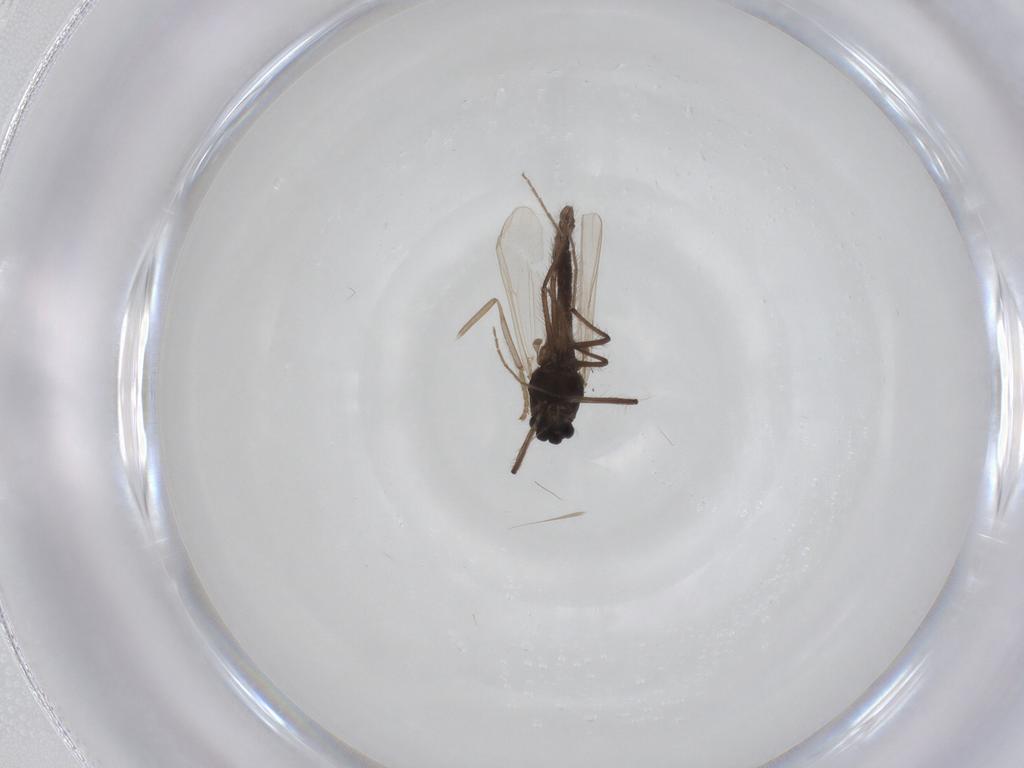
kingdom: Animalia
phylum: Arthropoda
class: Insecta
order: Diptera
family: Psychodidae
